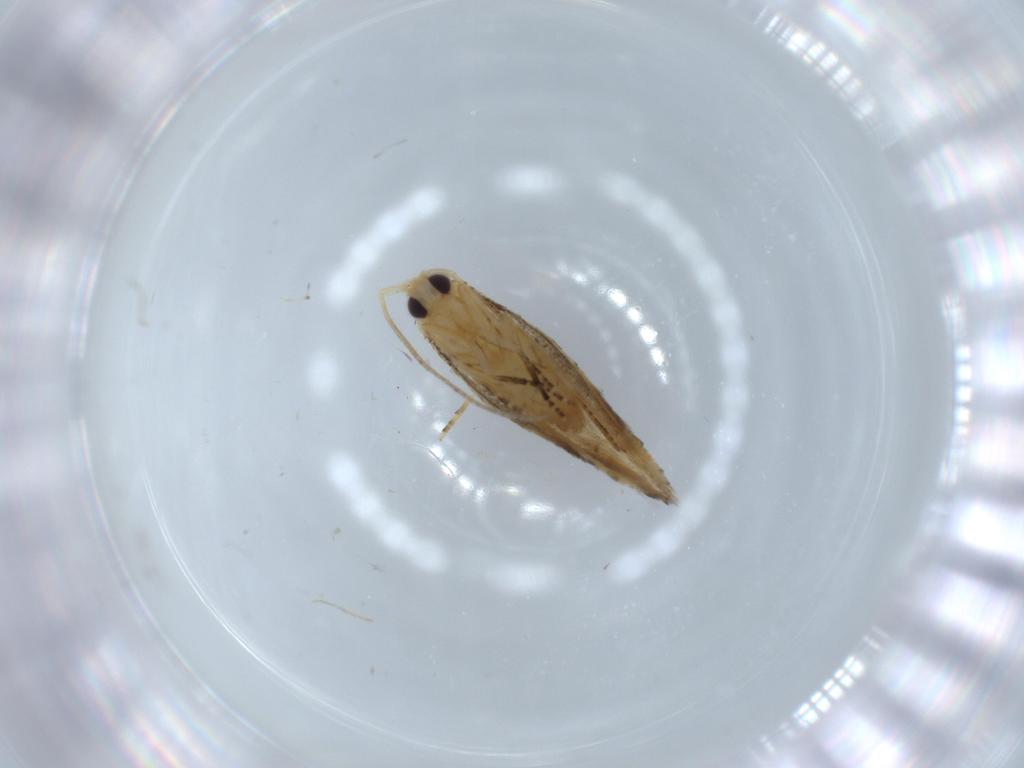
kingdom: Animalia
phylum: Arthropoda
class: Insecta
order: Lepidoptera
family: Bucculatricidae
